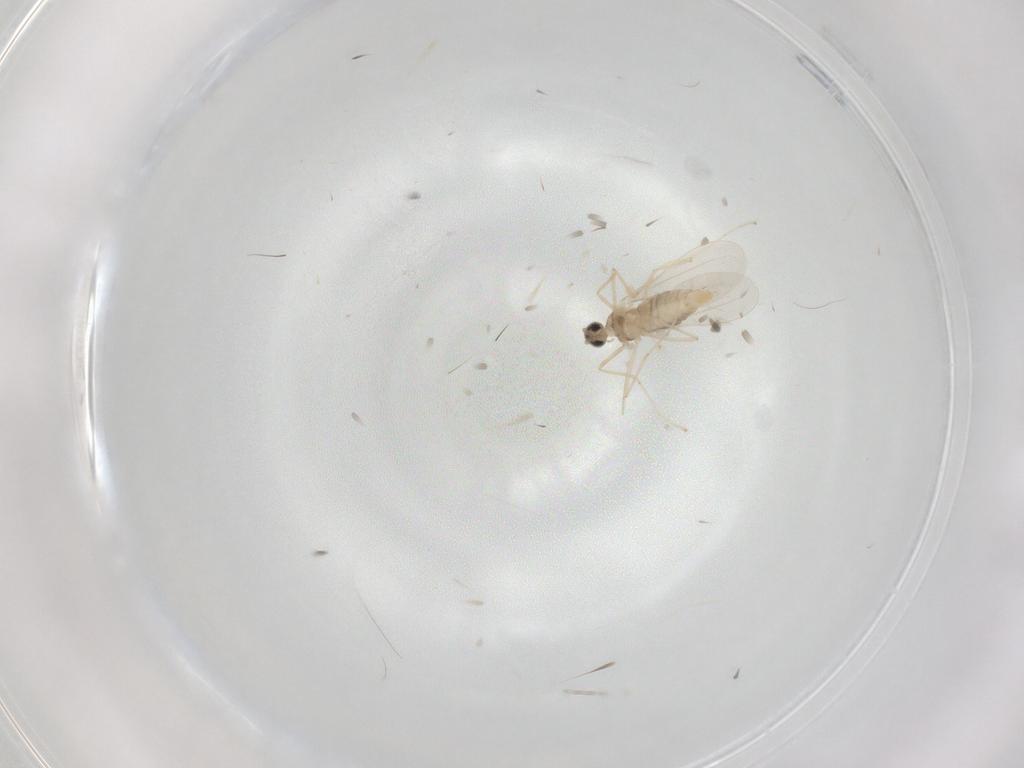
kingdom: Animalia
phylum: Arthropoda
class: Insecta
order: Diptera
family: Cecidomyiidae
